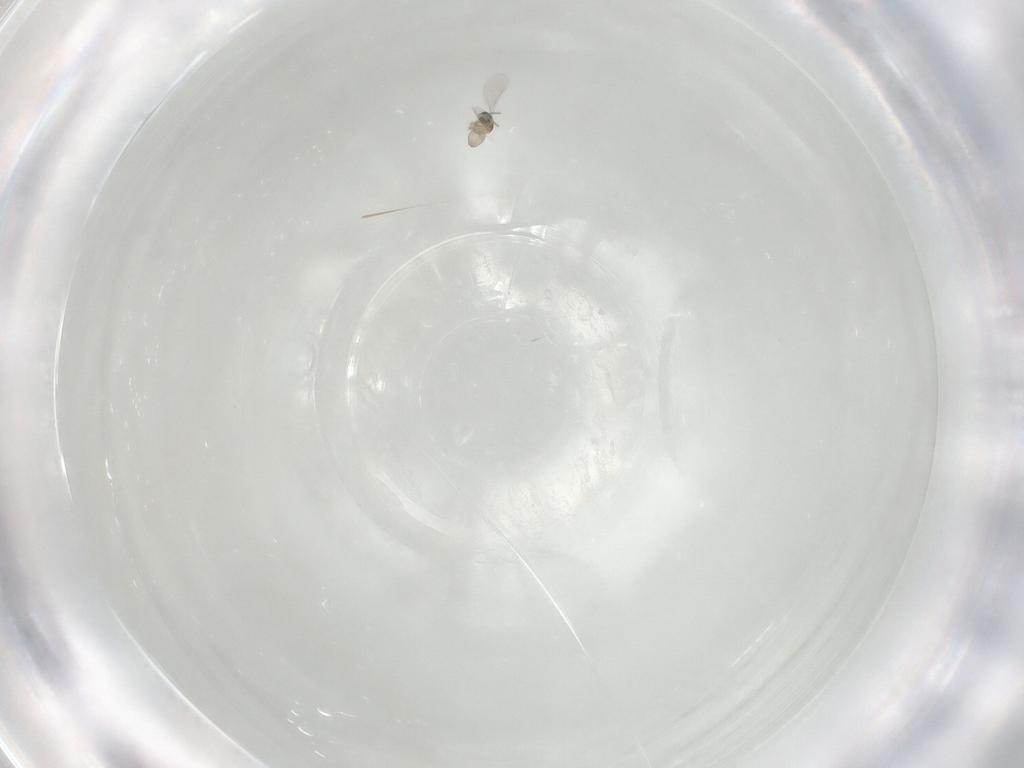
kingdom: Animalia
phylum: Arthropoda
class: Insecta
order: Diptera
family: Cecidomyiidae
